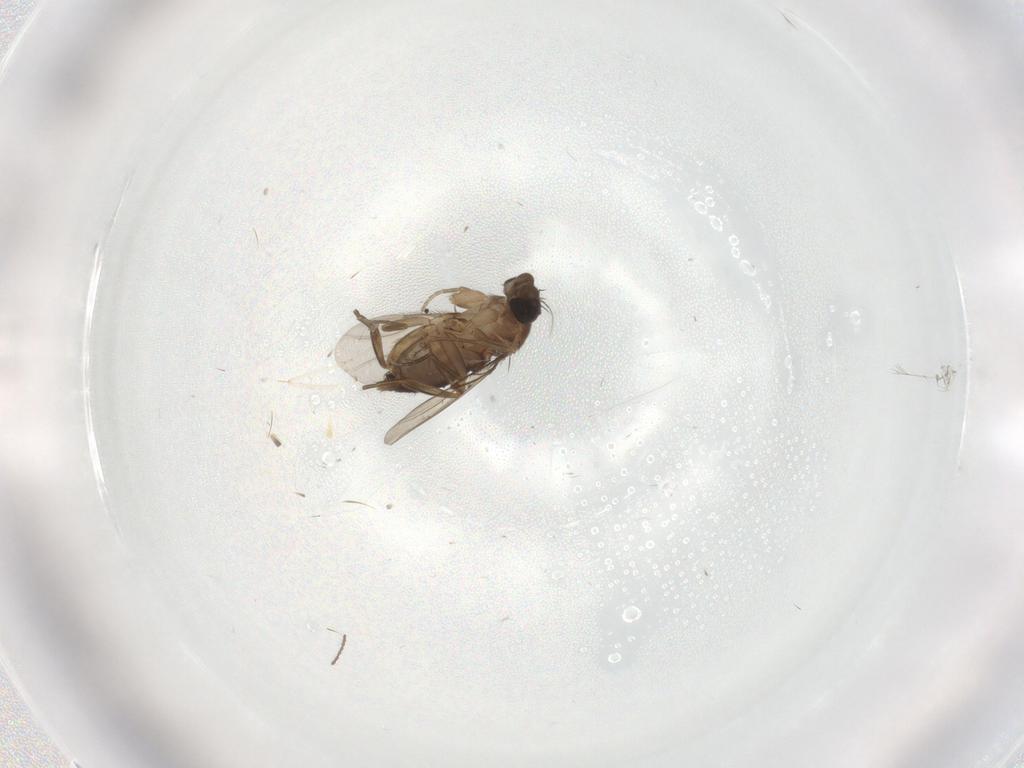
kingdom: Animalia
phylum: Arthropoda
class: Insecta
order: Diptera
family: Phoridae
